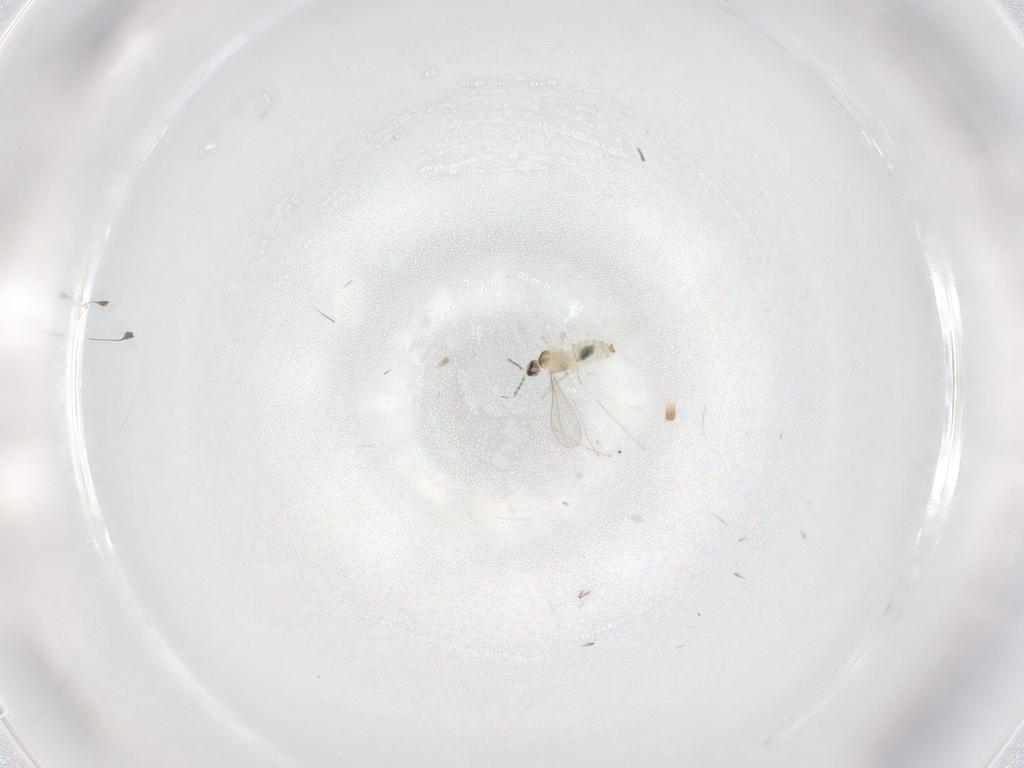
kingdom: Animalia
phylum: Arthropoda
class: Insecta
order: Diptera
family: Cecidomyiidae
